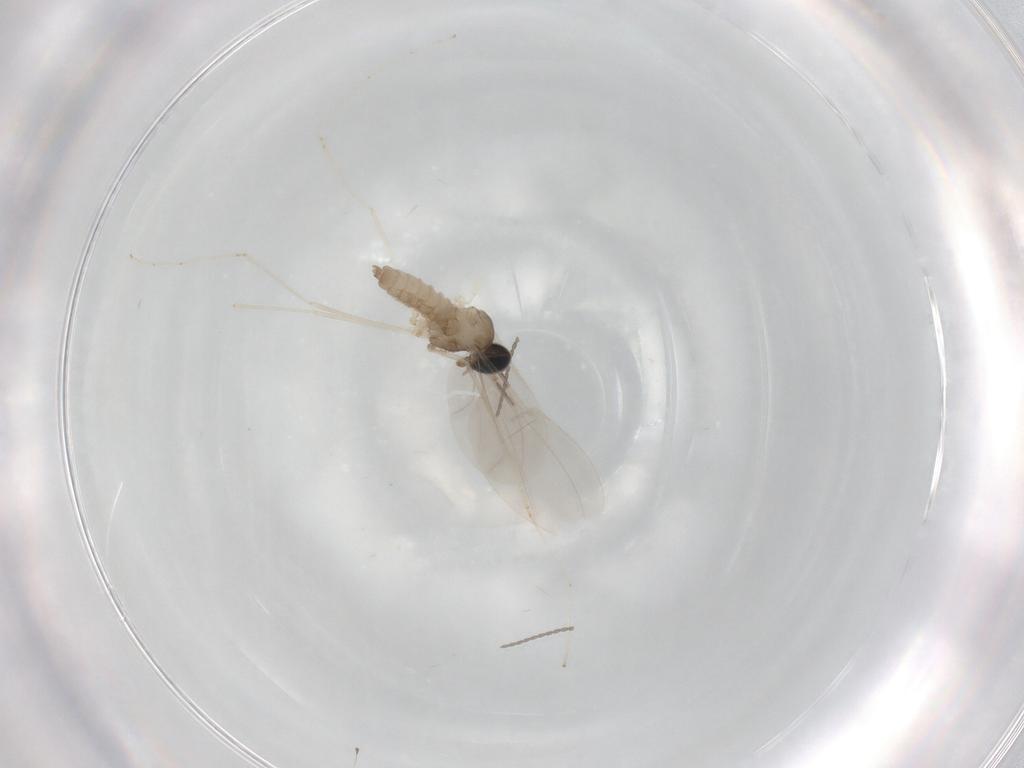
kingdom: Animalia
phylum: Arthropoda
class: Insecta
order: Diptera
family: Cecidomyiidae
